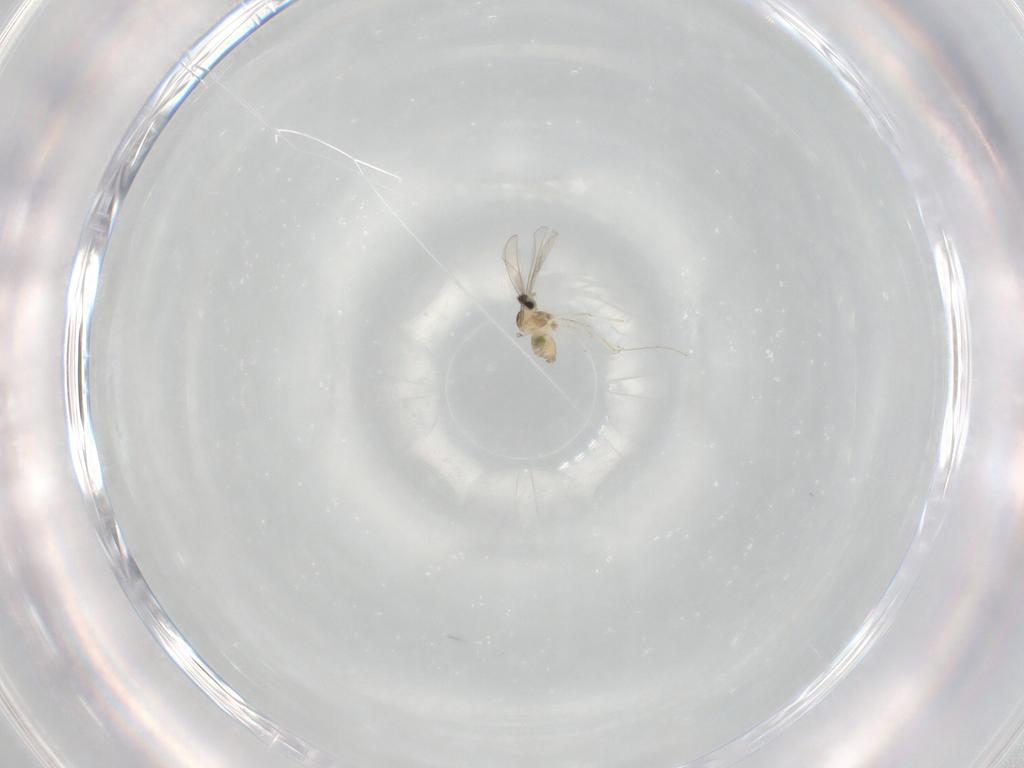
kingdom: Animalia
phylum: Arthropoda
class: Insecta
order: Diptera
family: Cecidomyiidae
